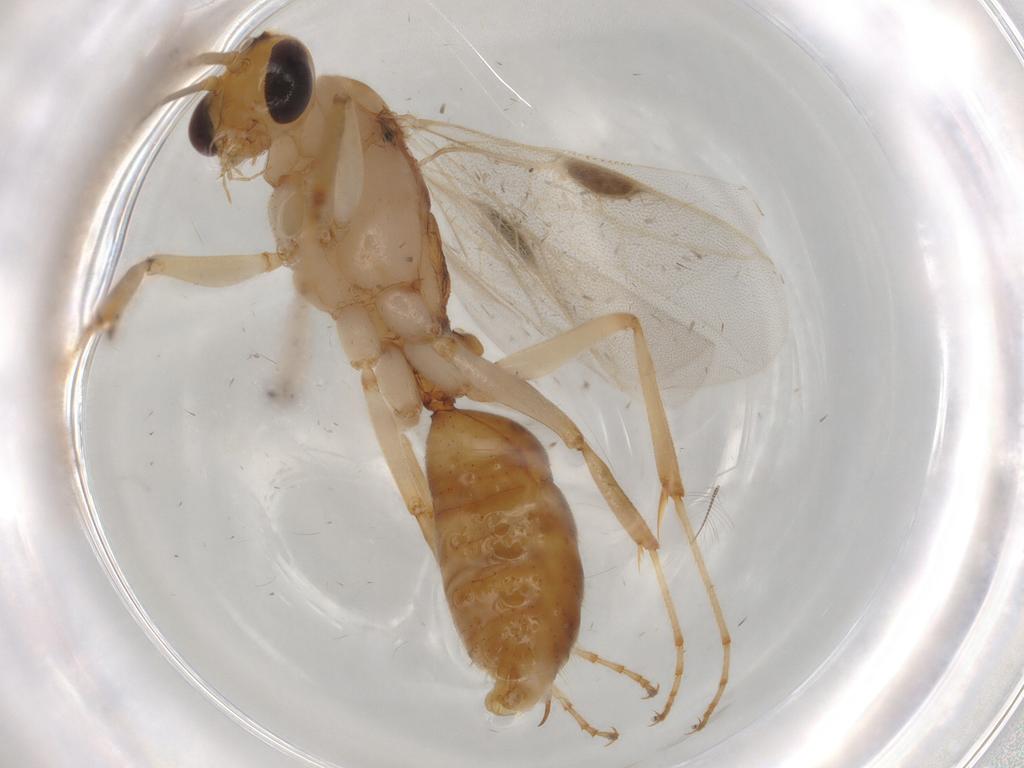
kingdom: Animalia
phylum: Arthropoda
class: Insecta
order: Hymenoptera
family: Formicidae
